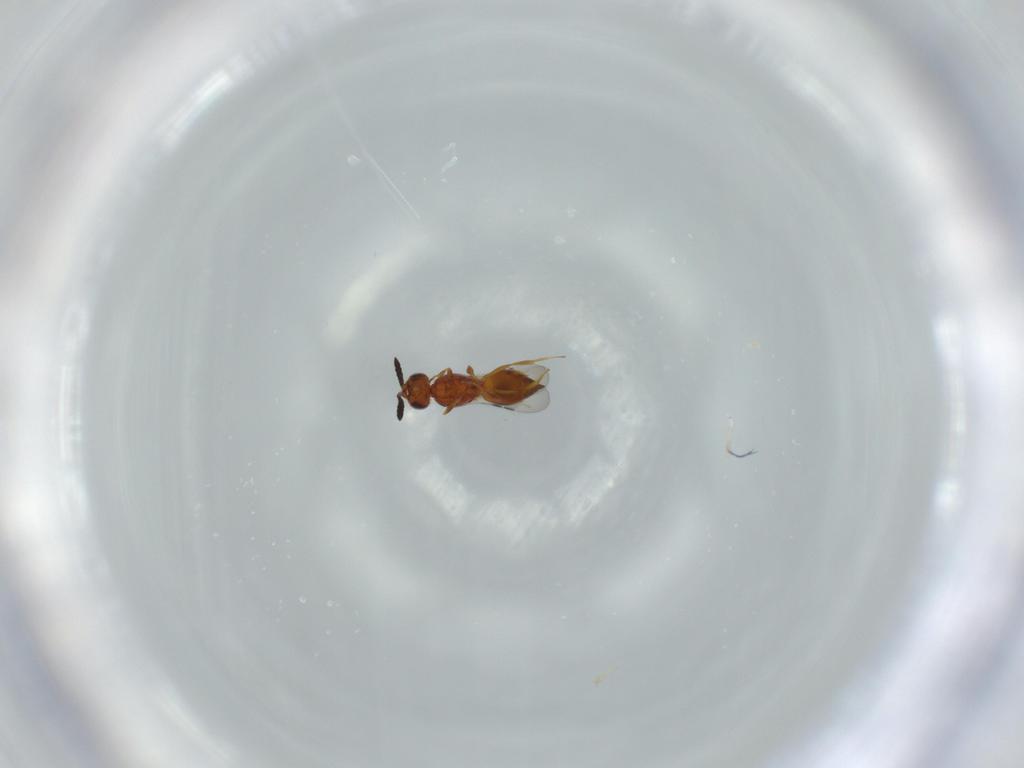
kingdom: Animalia
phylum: Arthropoda
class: Insecta
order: Hymenoptera
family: Ceraphronidae
